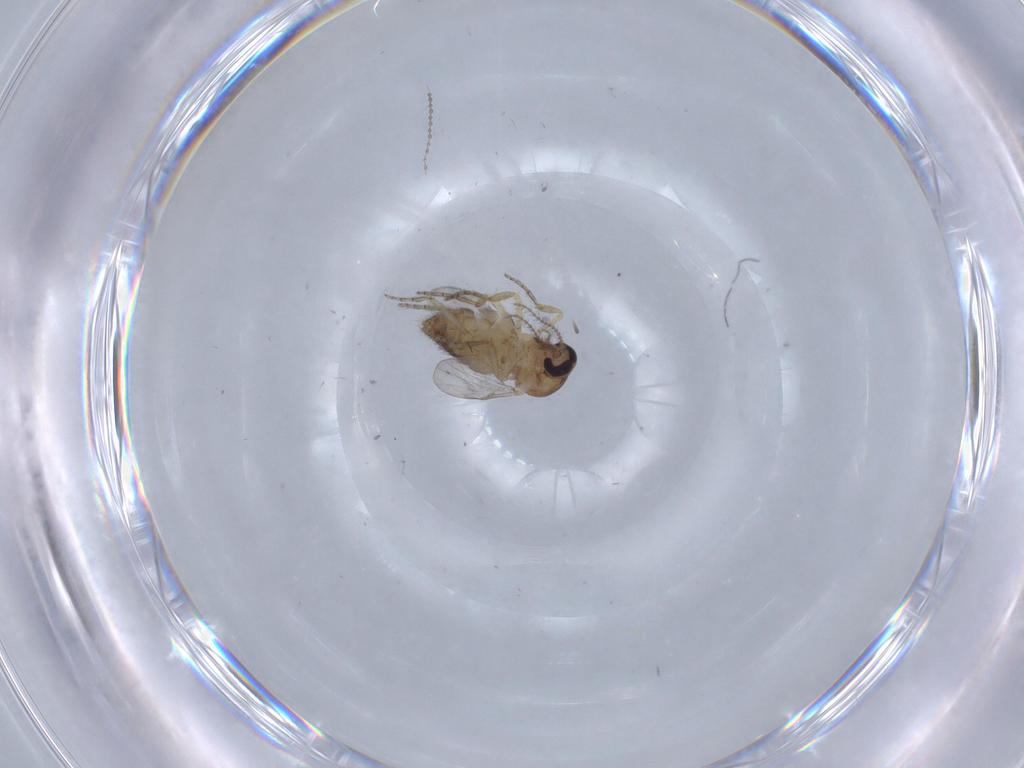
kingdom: Animalia
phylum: Arthropoda
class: Insecta
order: Diptera
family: Ceratopogonidae
